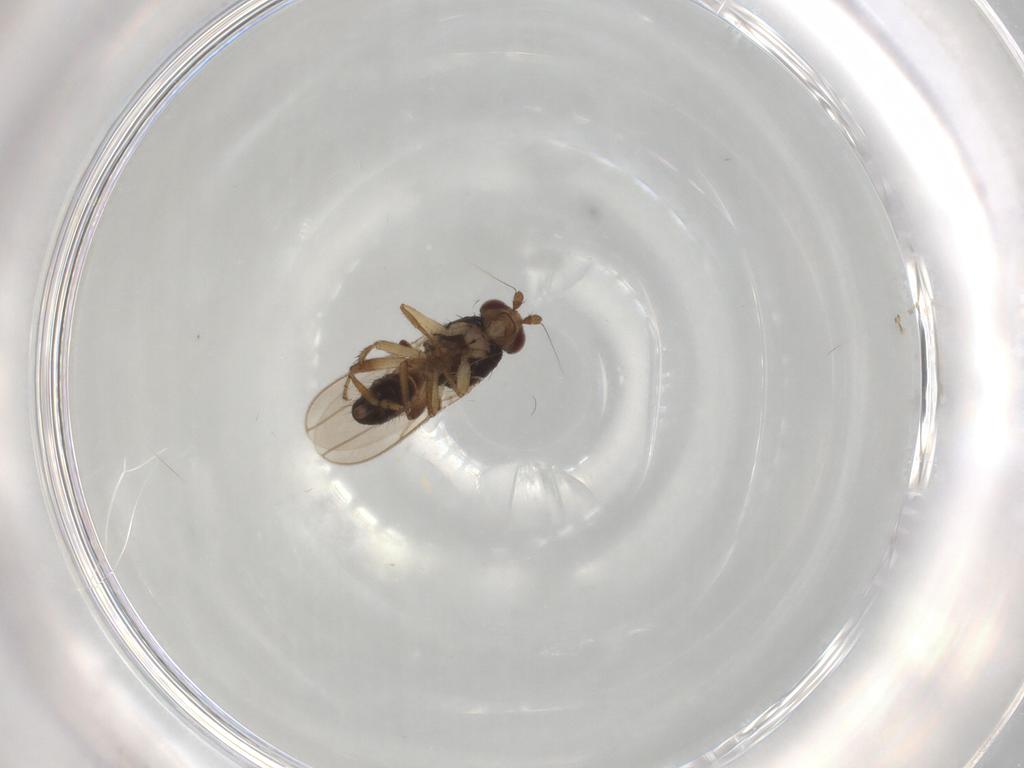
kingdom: Animalia
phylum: Arthropoda
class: Insecta
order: Diptera
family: Sphaeroceridae
